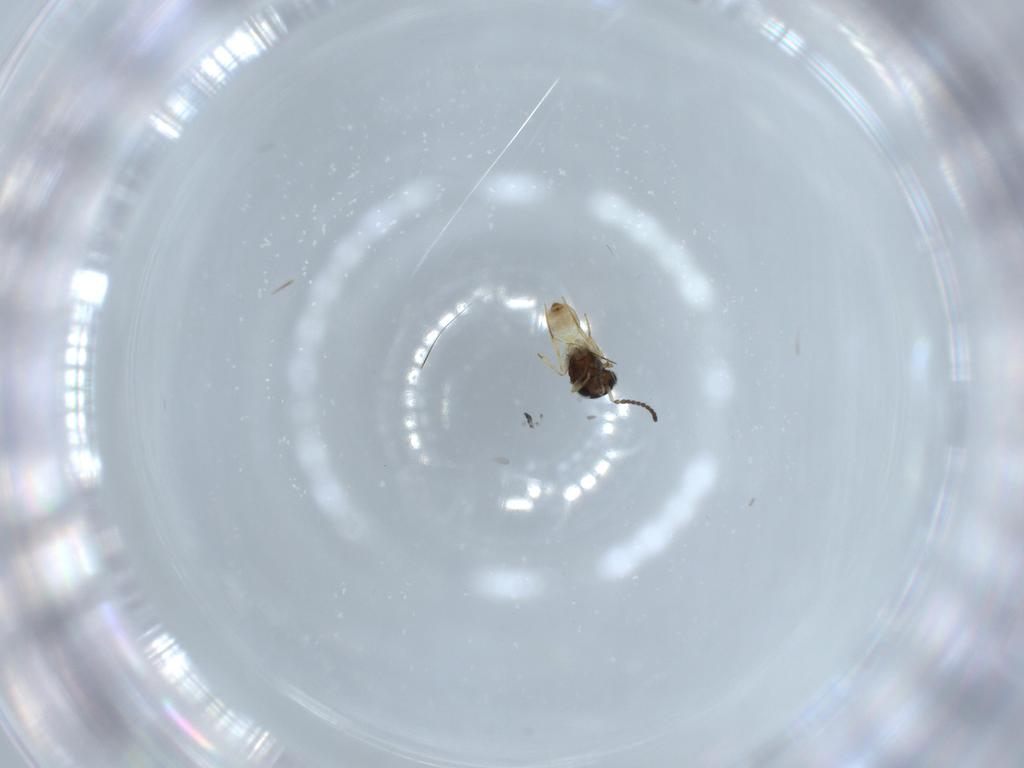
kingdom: Animalia
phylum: Arthropoda
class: Insecta
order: Hymenoptera
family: Scelionidae
